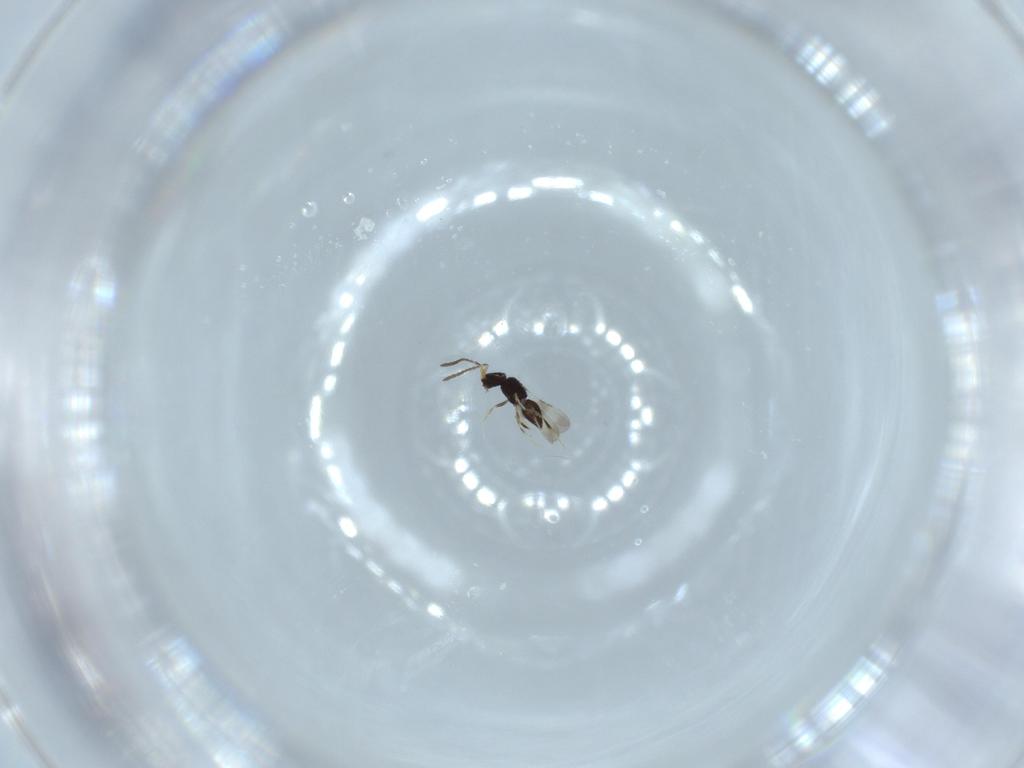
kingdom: Animalia
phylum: Arthropoda
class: Insecta
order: Hymenoptera
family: Ceraphronidae
